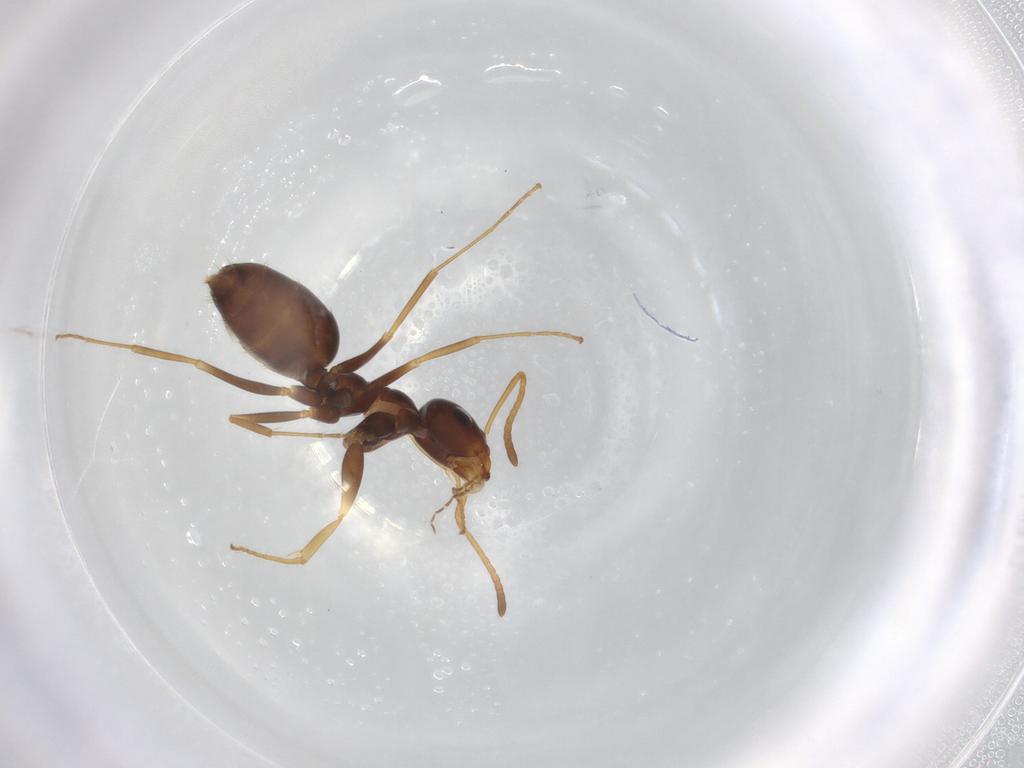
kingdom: Animalia
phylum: Arthropoda
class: Insecta
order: Hymenoptera
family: Formicidae
